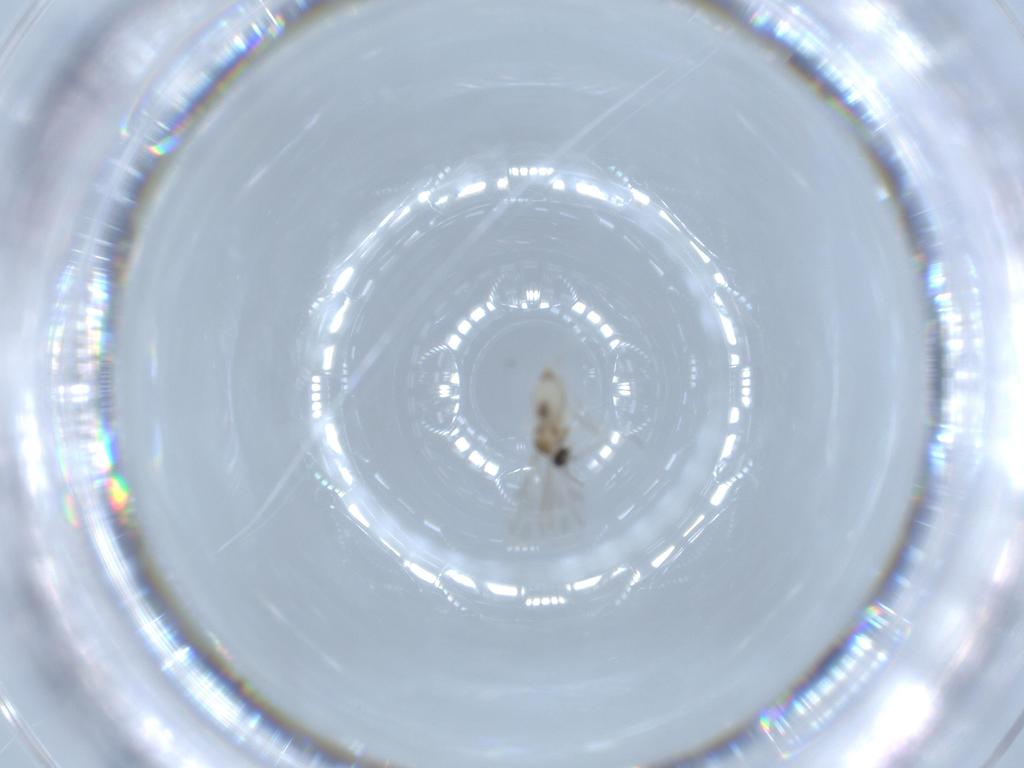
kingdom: Animalia
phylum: Arthropoda
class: Insecta
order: Diptera
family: Cecidomyiidae
